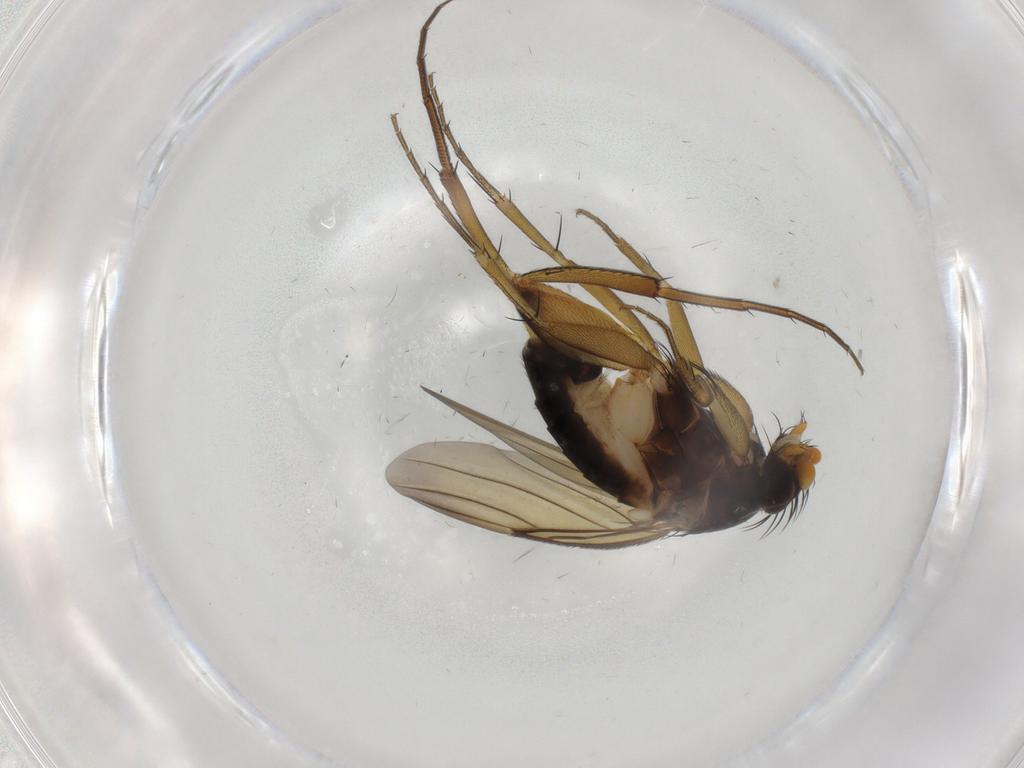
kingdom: Animalia
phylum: Arthropoda
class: Insecta
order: Diptera
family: Phoridae
